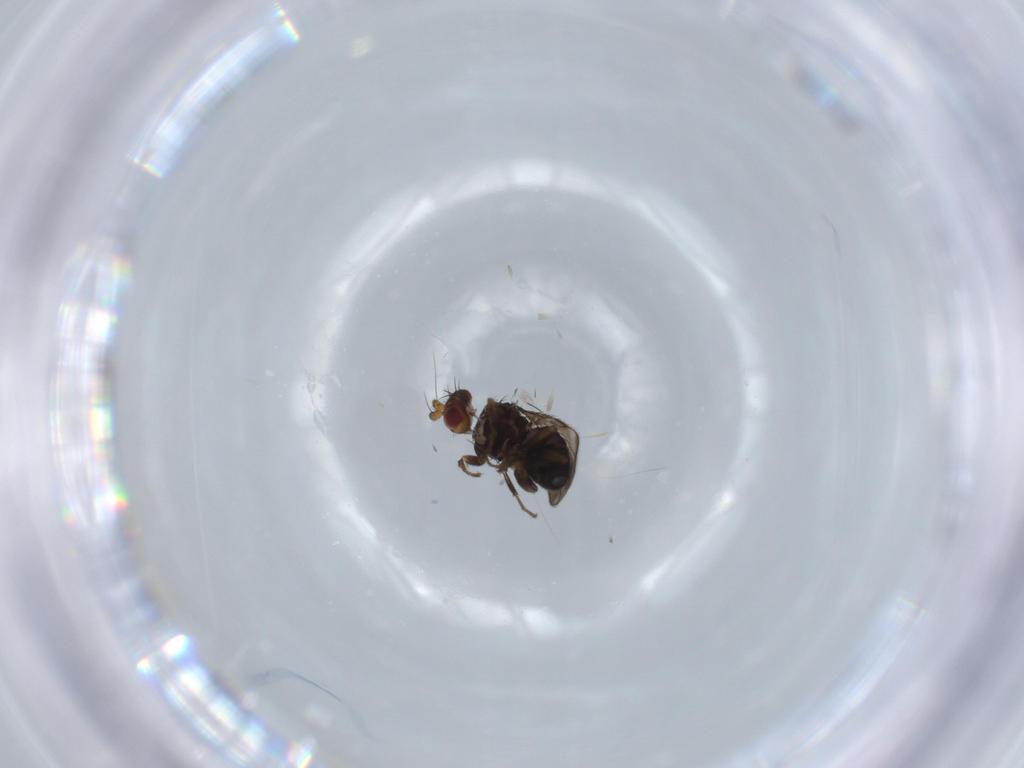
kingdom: Animalia
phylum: Arthropoda
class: Insecta
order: Diptera
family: Sphaeroceridae
